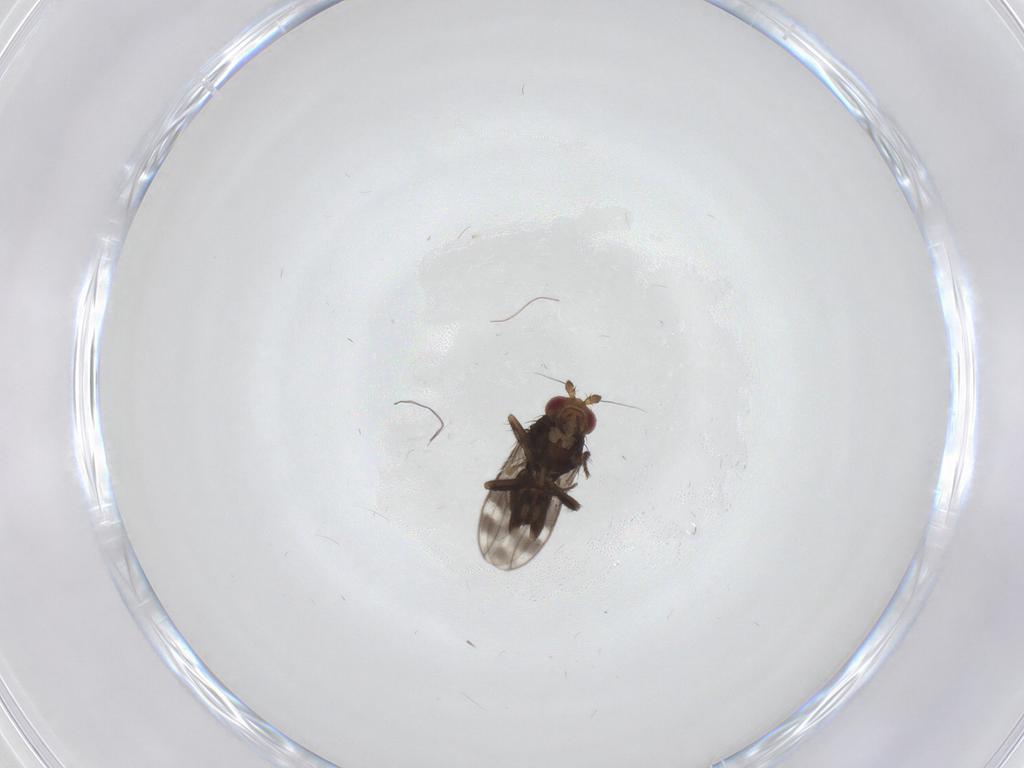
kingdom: Animalia
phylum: Arthropoda
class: Insecta
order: Diptera
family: Sphaeroceridae
